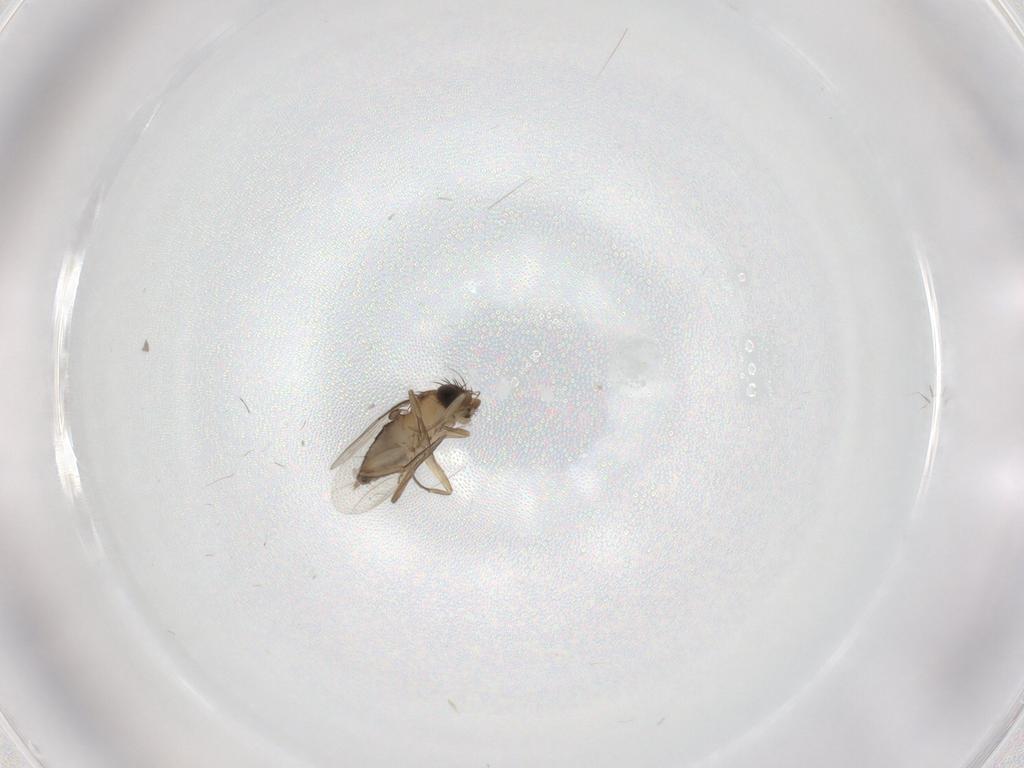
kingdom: Animalia
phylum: Arthropoda
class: Insecta
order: Diptera
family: Phoridae
